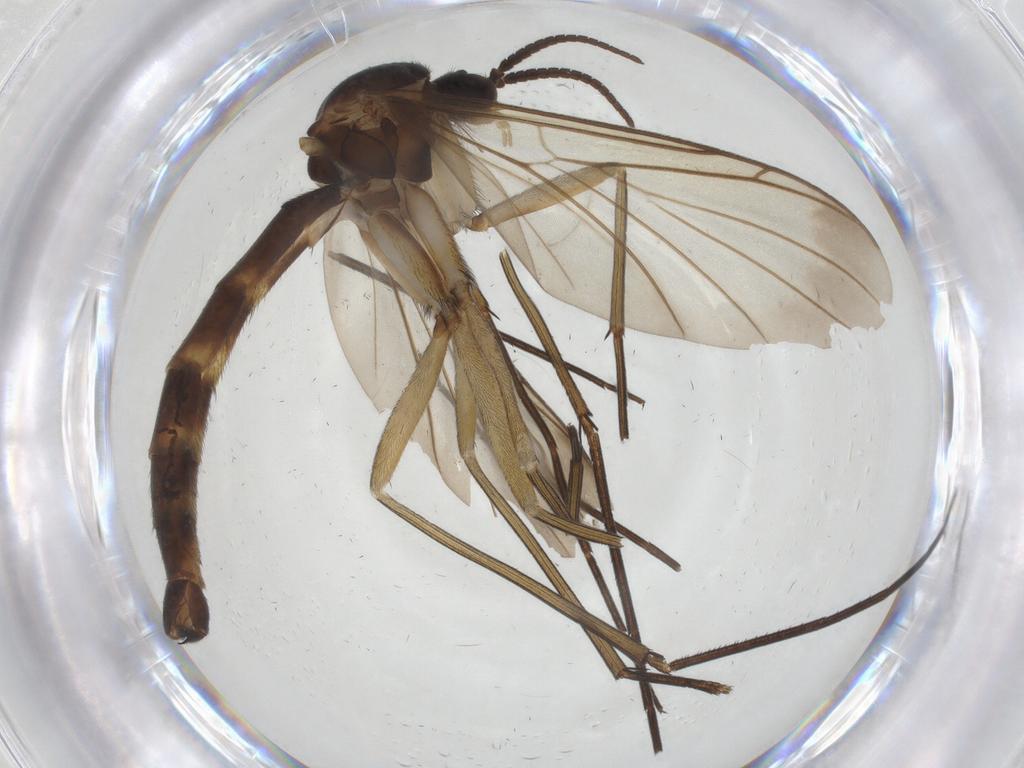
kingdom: Animalia
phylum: Arthropoda
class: Insecta
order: Diptera
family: Keroplatidae
